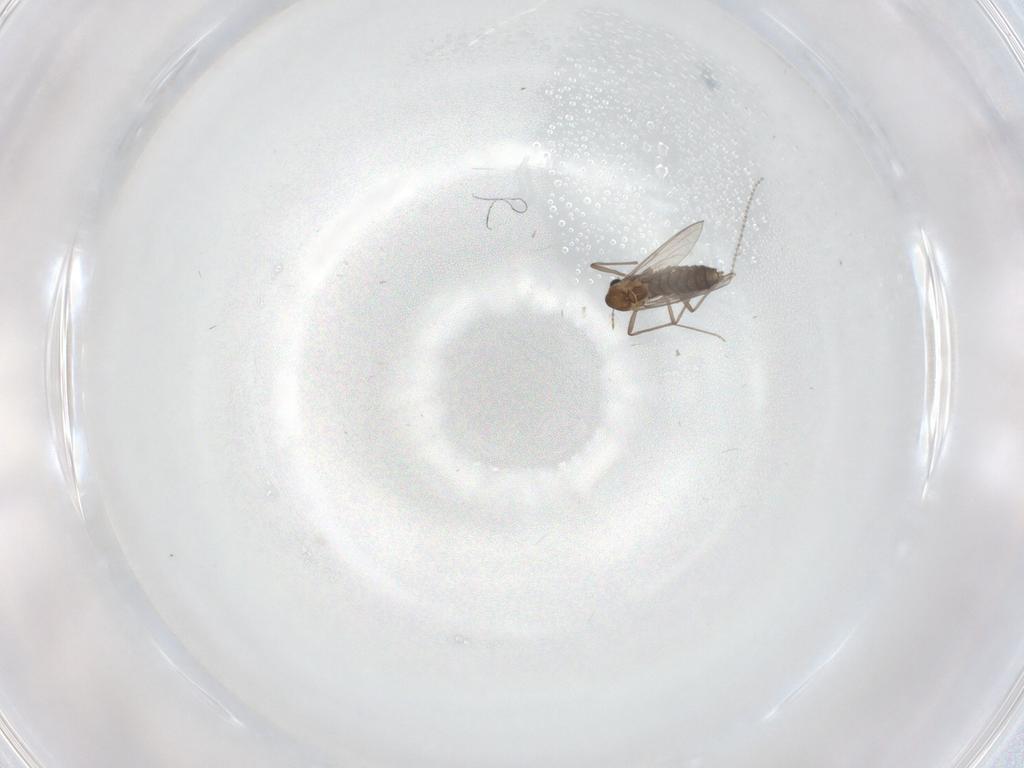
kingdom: Animalia
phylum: Arthropoda
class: Insecta
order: Diptera
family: Chironomidae
